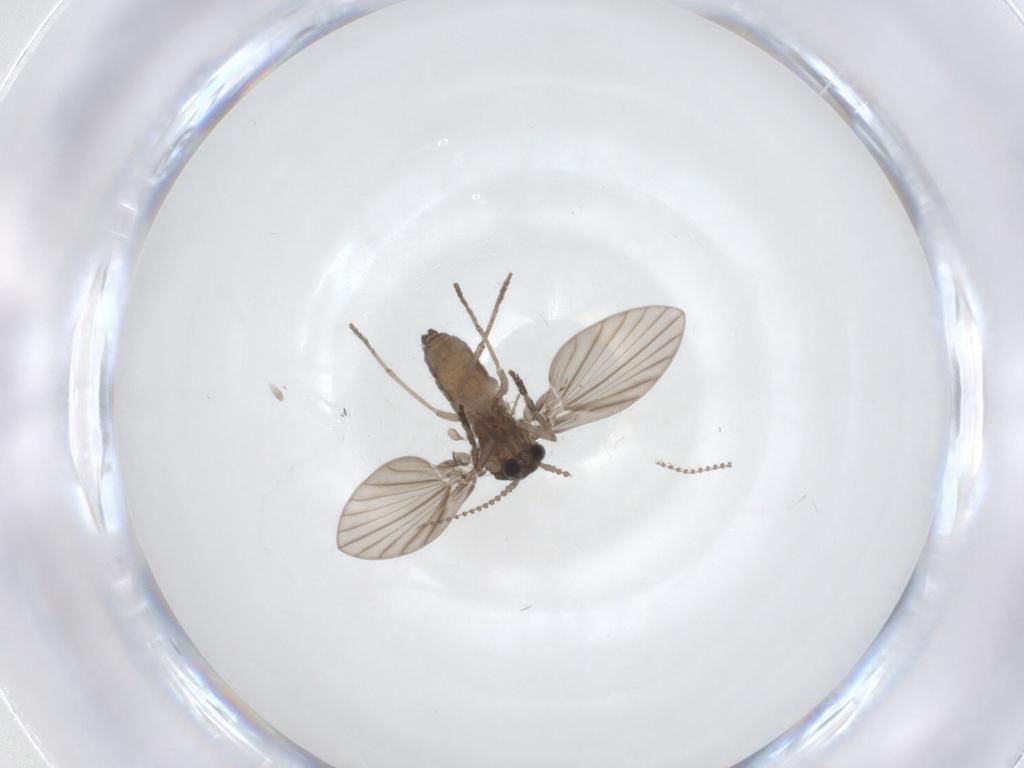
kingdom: Animalia
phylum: Arthropoda
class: Insecta
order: Diptera
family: Psychodidae
